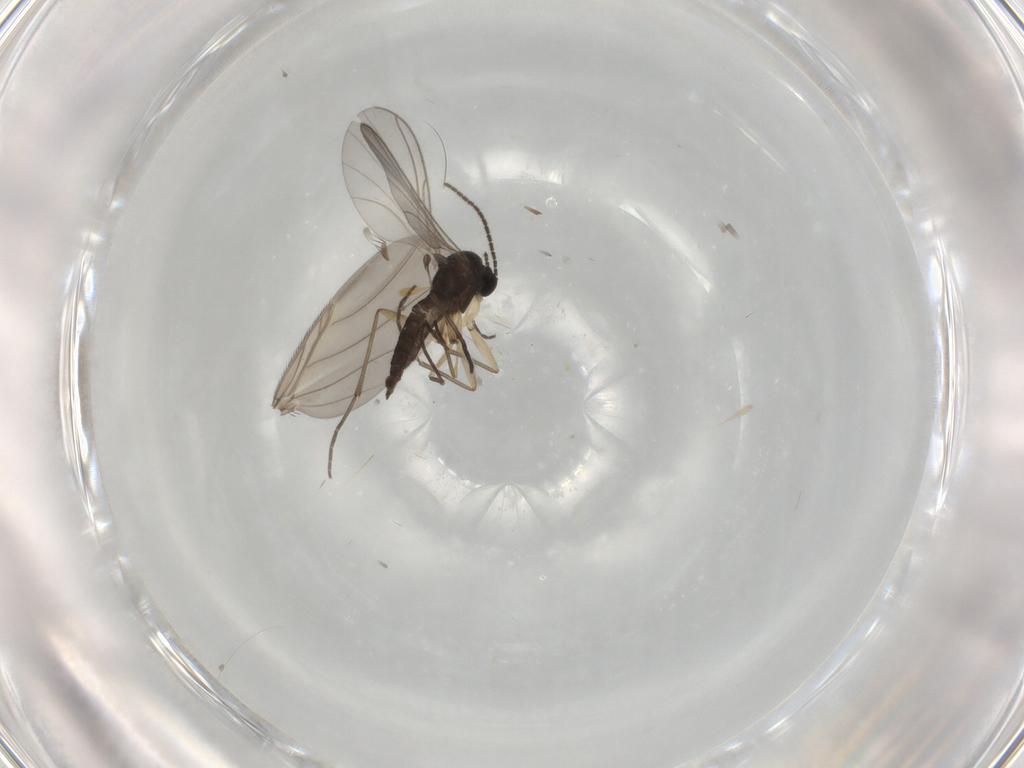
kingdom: Animalia
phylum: Arthropoda
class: Insecta
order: Diptera
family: Sciaridae
